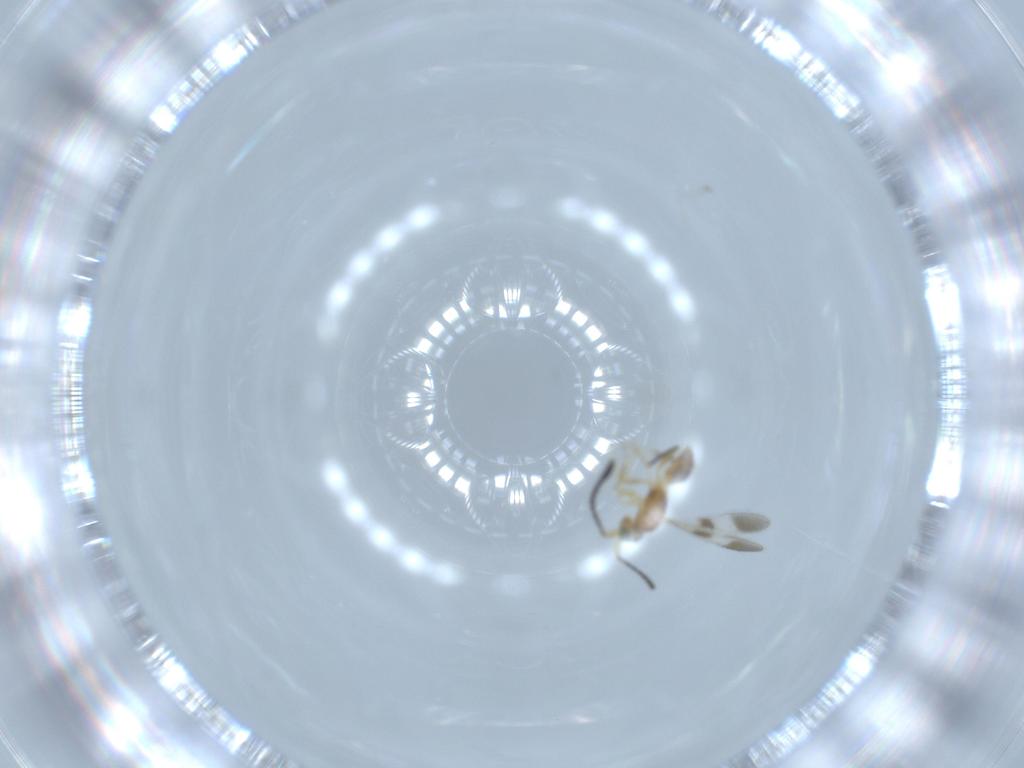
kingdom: Animalia
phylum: Arthropoda
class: Insecta
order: Hymenoptera
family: Mymaridae
